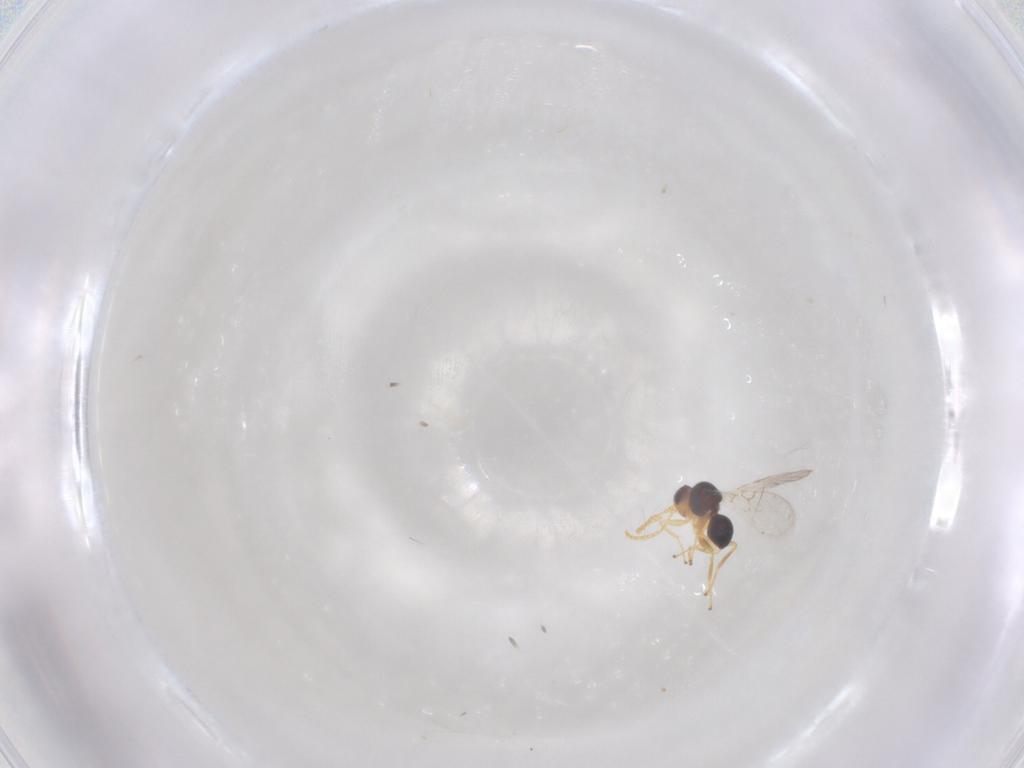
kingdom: Animalia
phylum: Arthropoda
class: Insecta
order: Hymenoptera
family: Figitidae
